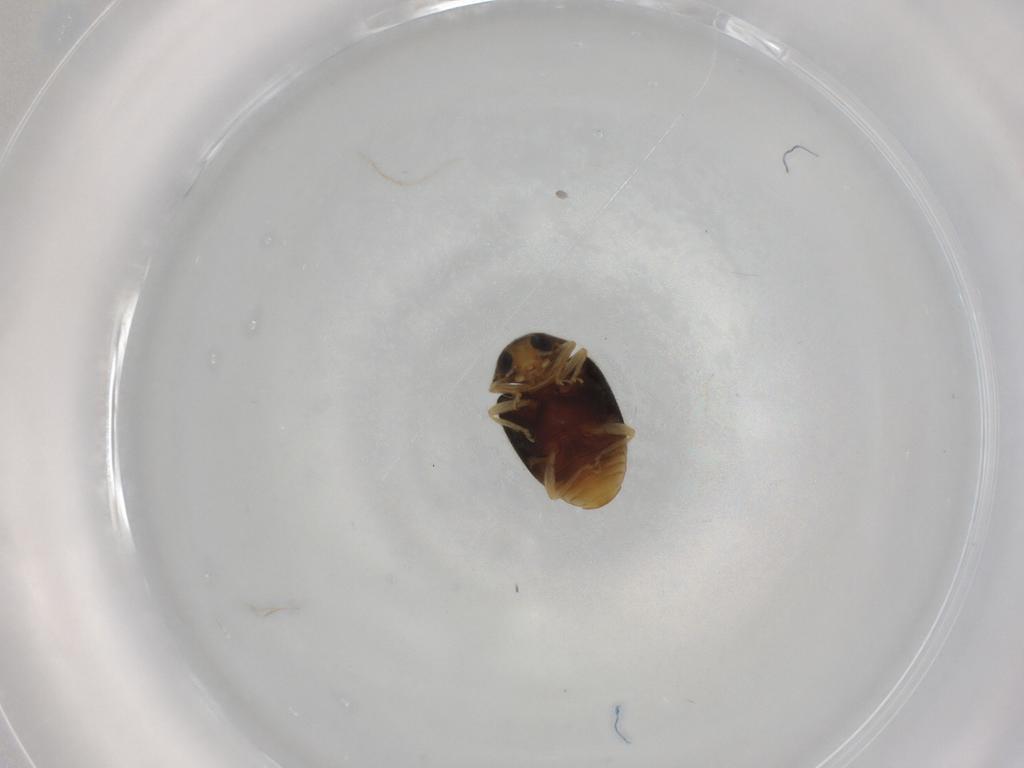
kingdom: Animalia
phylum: Arthropoda
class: Insecta
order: Coleoptera
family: Coccinellidae
